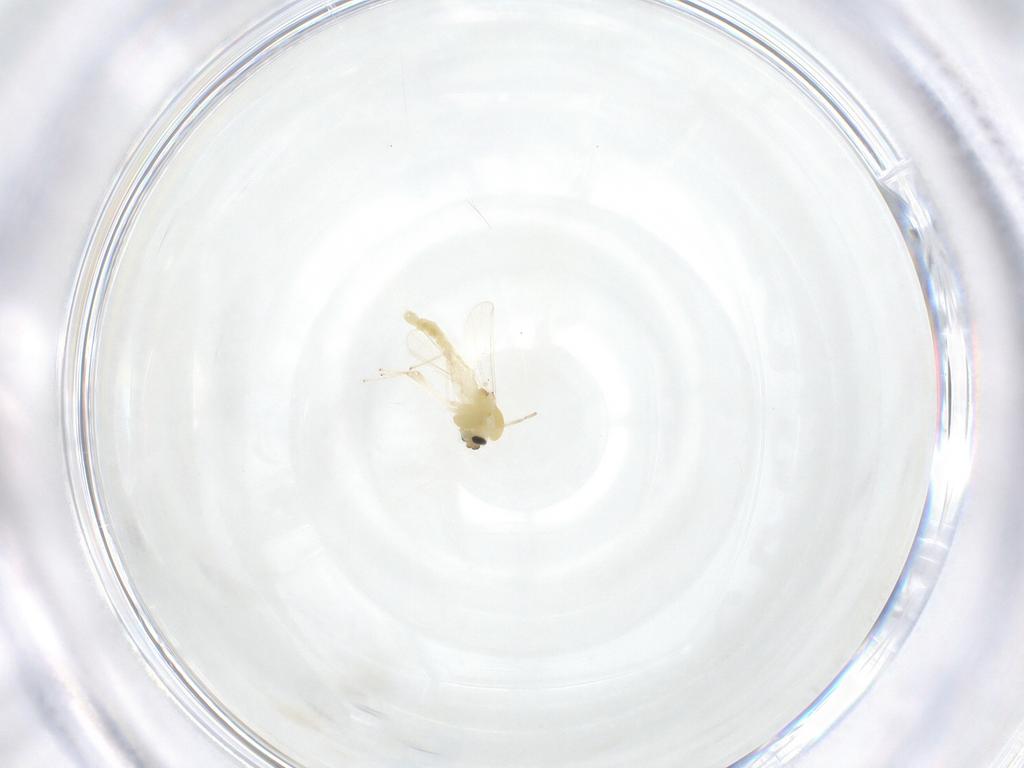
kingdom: Animalia
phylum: Arthropoda
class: Insecta
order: Diptera
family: Chironomidae
